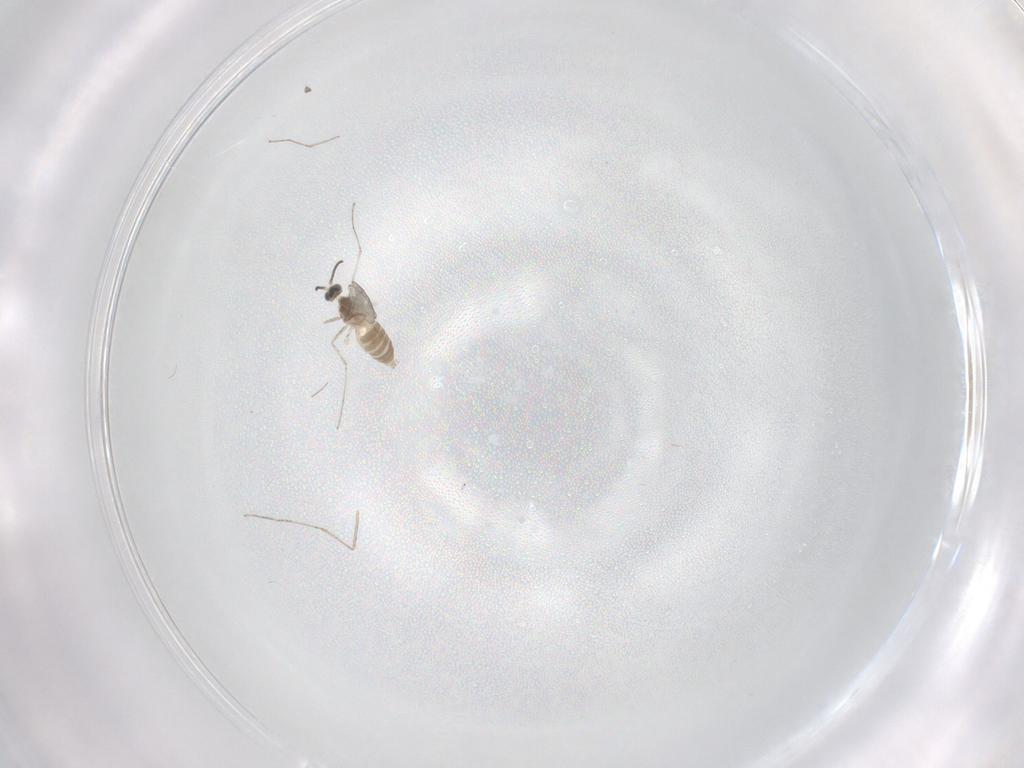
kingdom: Animalia
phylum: Arthropoda
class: Insecta
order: Diptera
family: Cecidomyiidae
